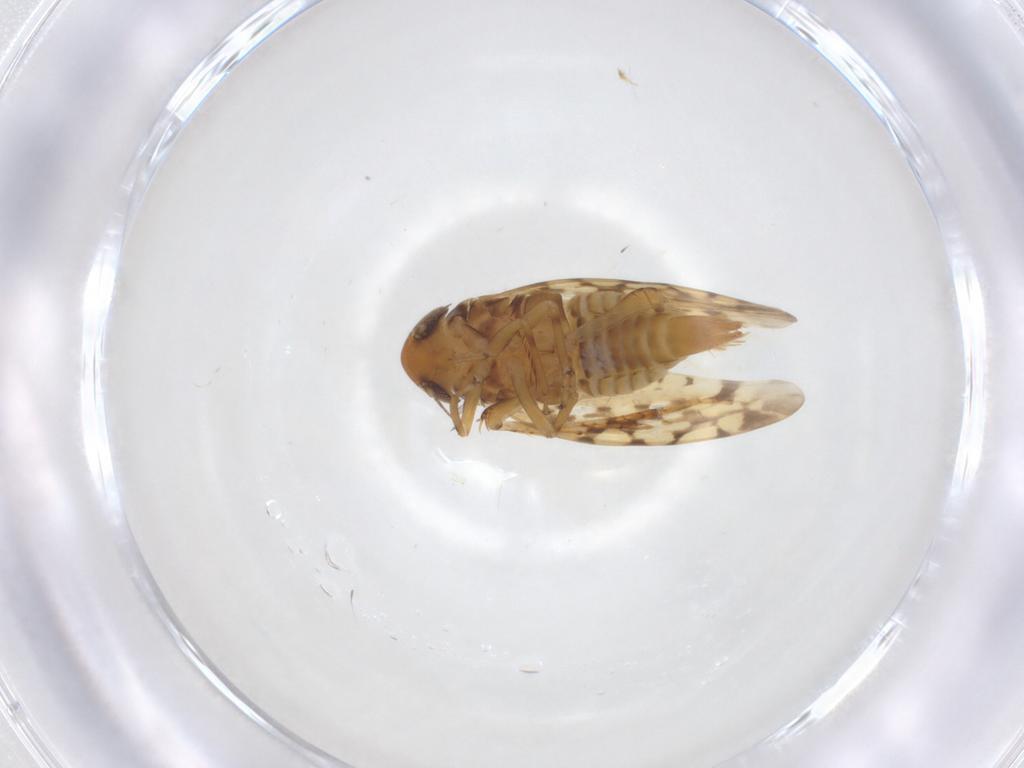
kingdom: Animalia
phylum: Arthropoda
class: Insecta
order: Hemiptera
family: Cicadellidae
